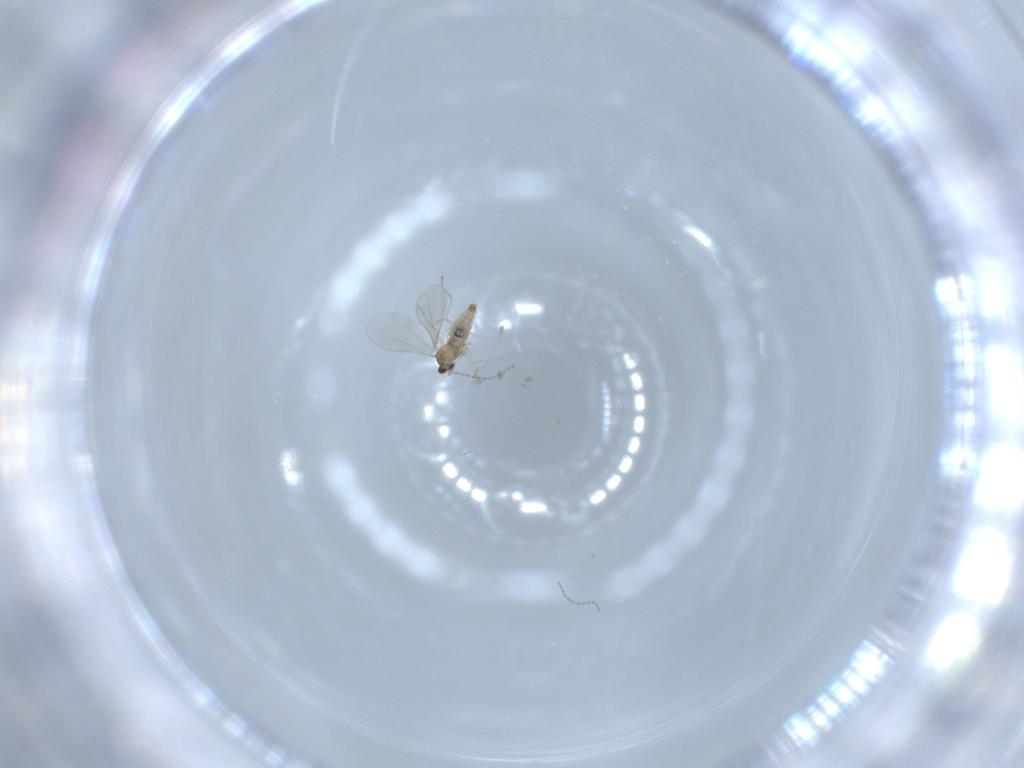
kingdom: Animalia
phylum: Arthropoda
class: Insecta
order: Diptera
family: Cecidomyiidae
